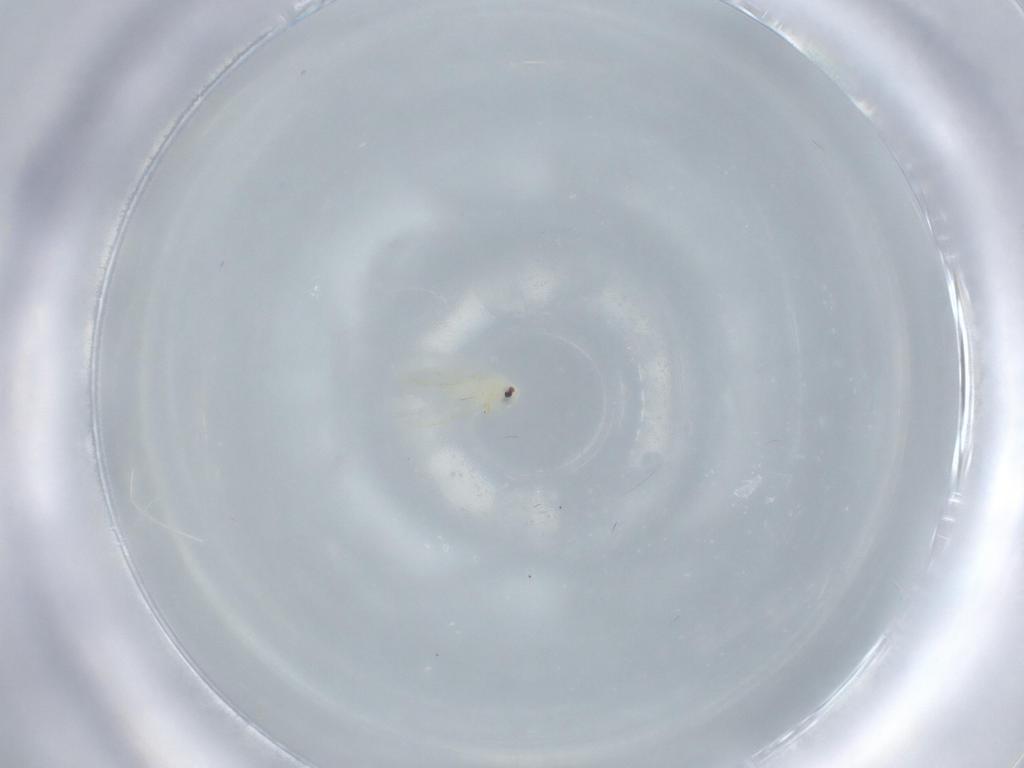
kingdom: Animalia
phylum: Arthropoda
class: Insecta
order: Hemiptera
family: Aleyrodidae
